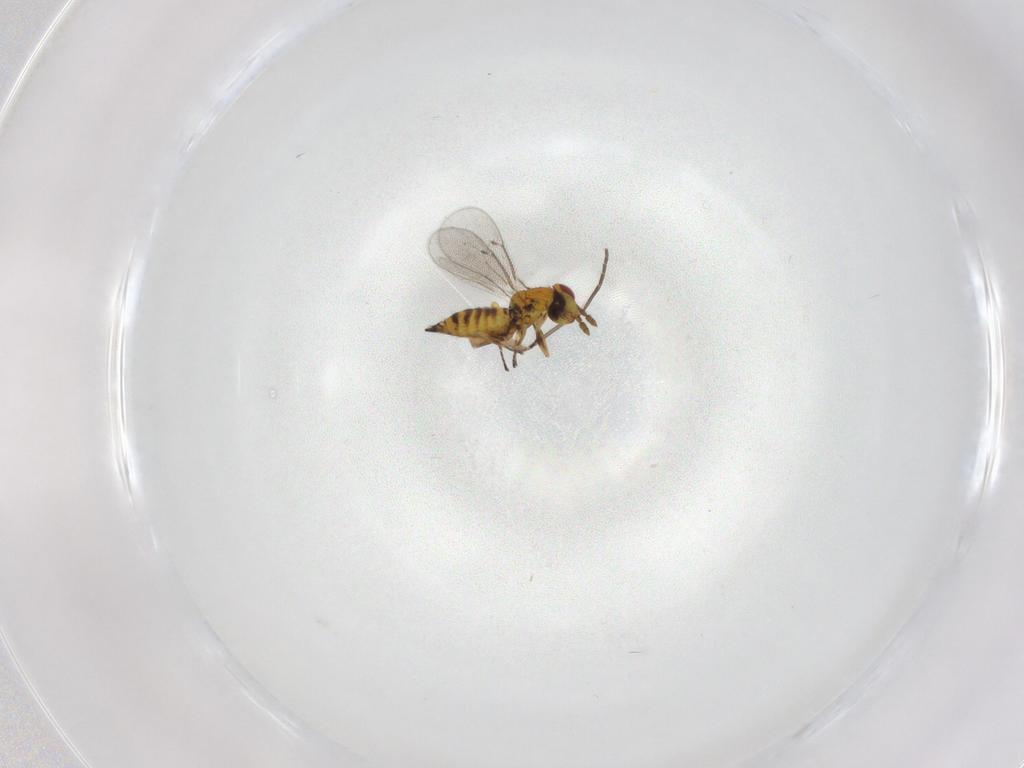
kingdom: Animalia
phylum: Arthropoda
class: Insecta
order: Hymenoptera
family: Eulophidae
